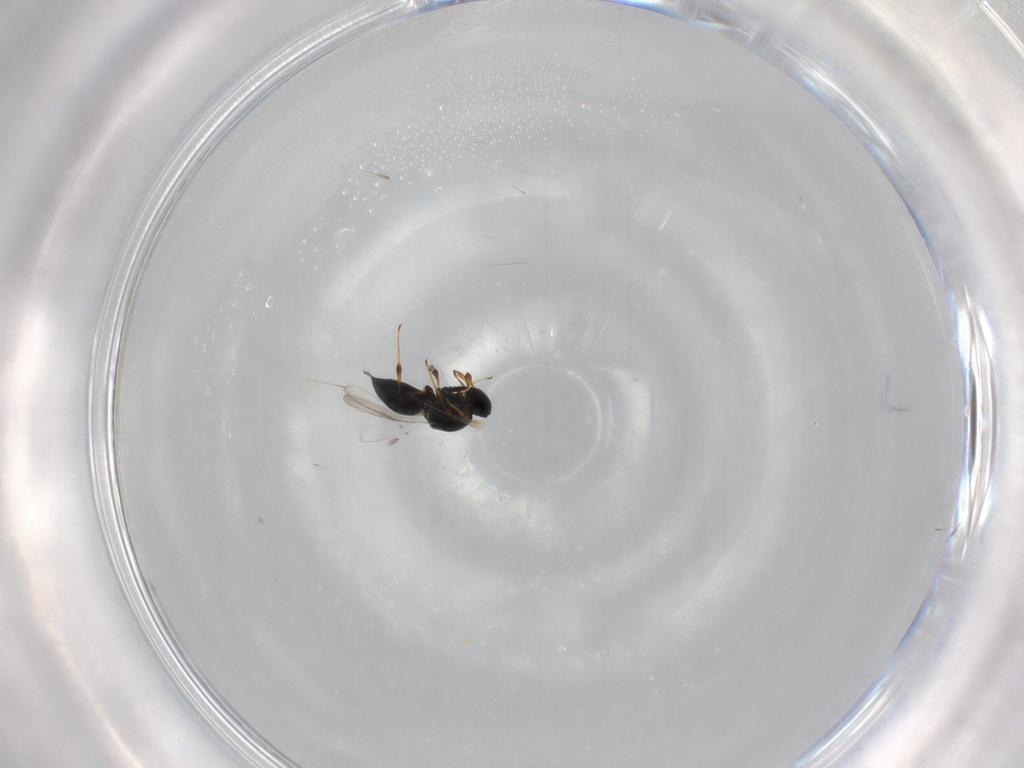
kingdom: Animalia
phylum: Arthropoda
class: Insecta
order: Hymenoptera
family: Platygastridae
